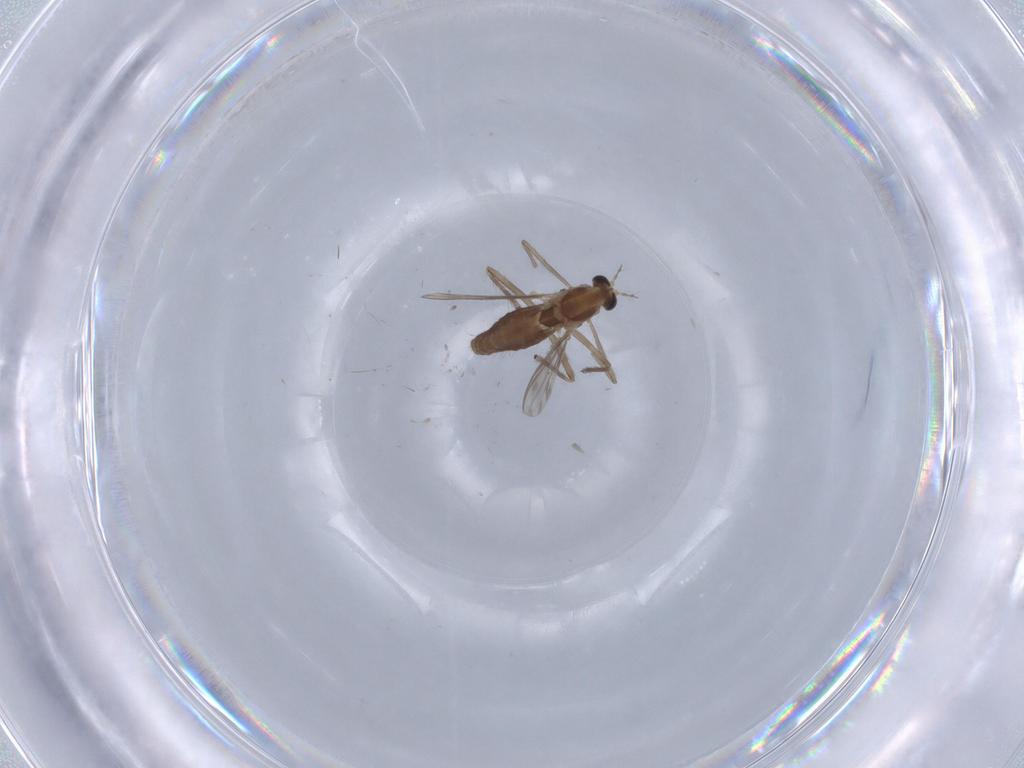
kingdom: Animalia
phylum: Arthropoda
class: Insecta
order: Diptera
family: Chironomidae
